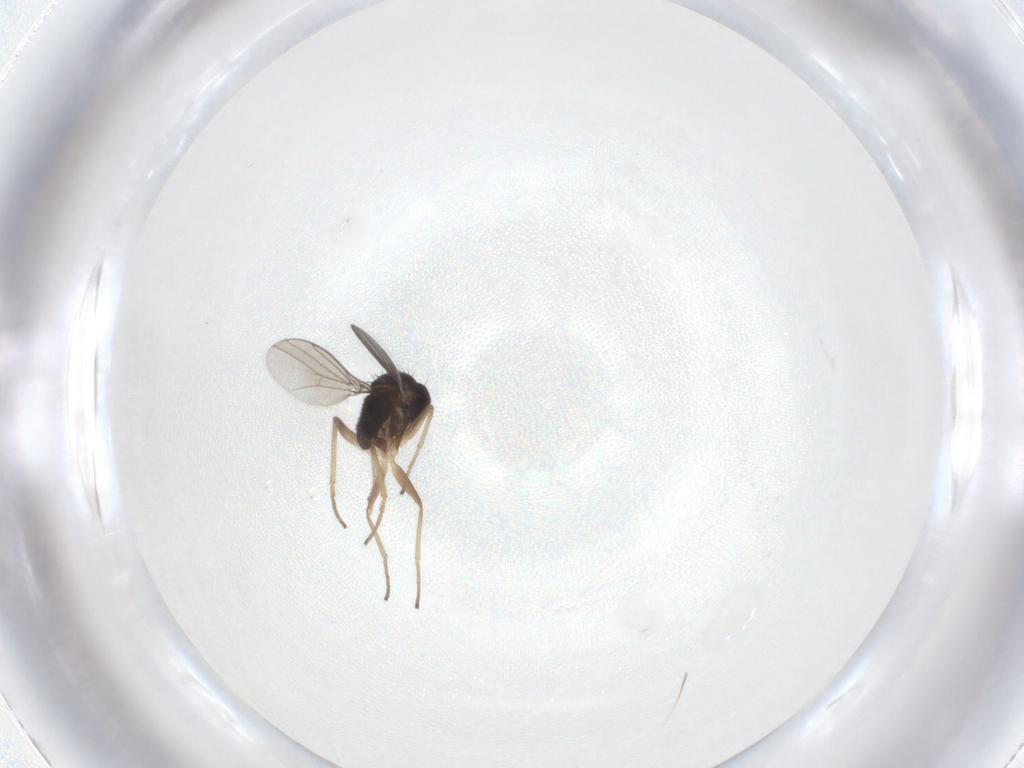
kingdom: Animalia
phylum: Arthropoda
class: Insecta
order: Diptera
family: Dolichopodidae
